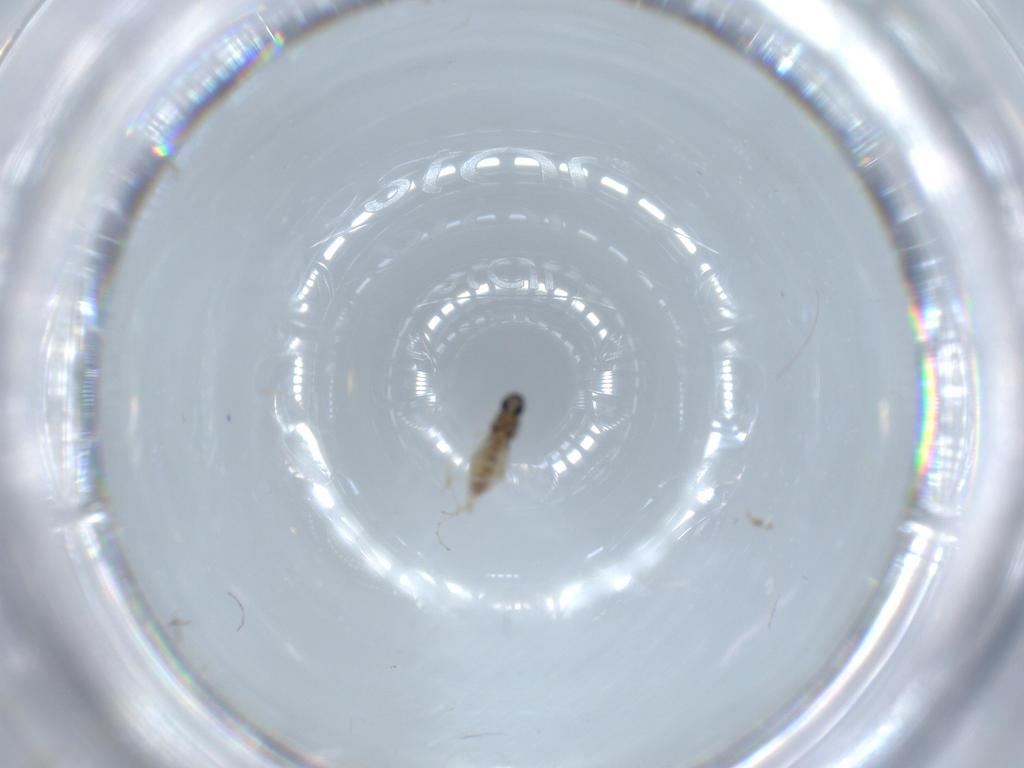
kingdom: Animalia
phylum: Arthropoda
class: Insecta
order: Diptera
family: Cecidomyiidae
